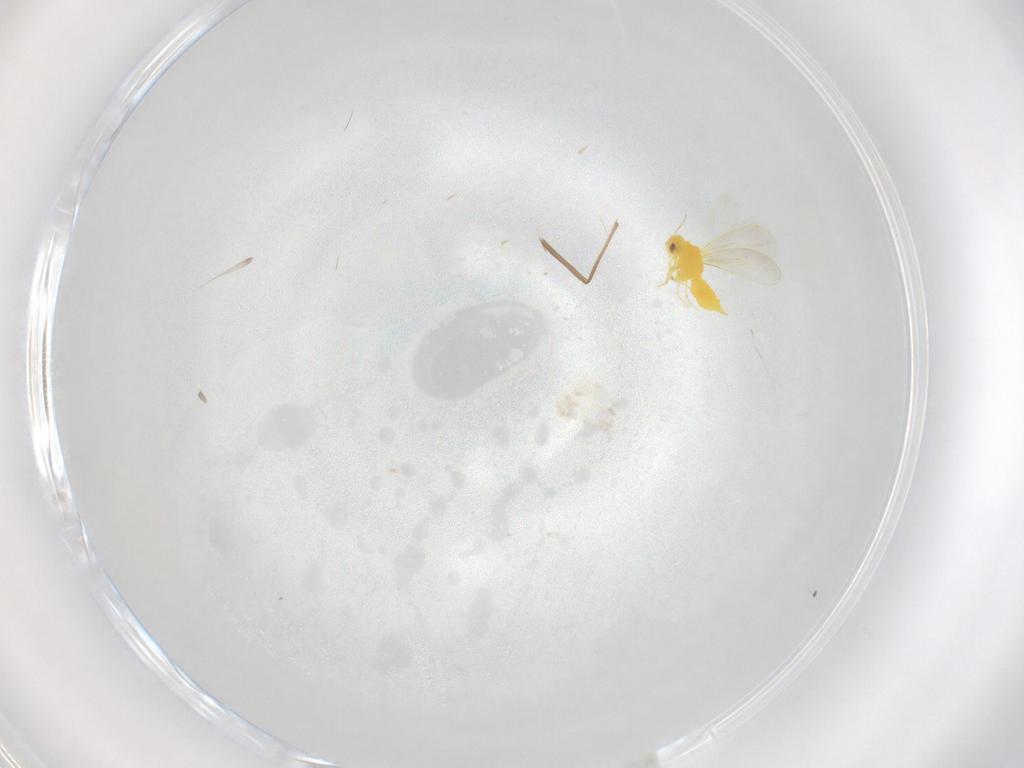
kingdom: Animalia
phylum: Arthropoda
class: Insecta
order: Hemiptera
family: Aleyrodidae
